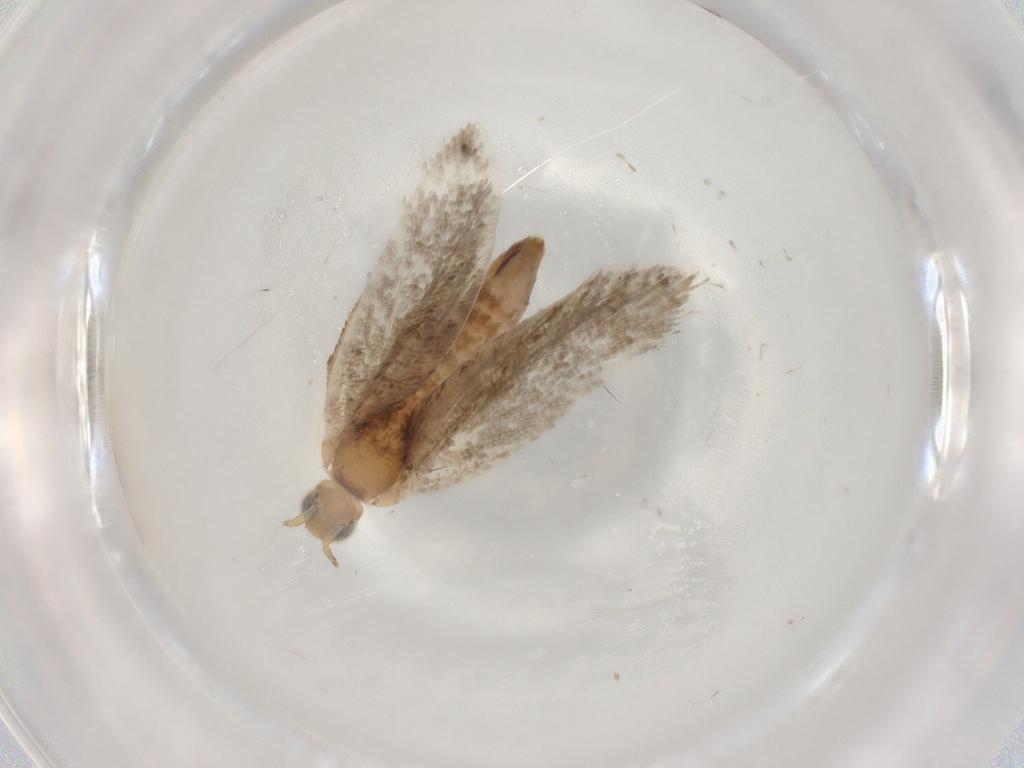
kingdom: Animalia
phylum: Arthropoda
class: Insecta
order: Lepidoptera
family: Plutellidae
